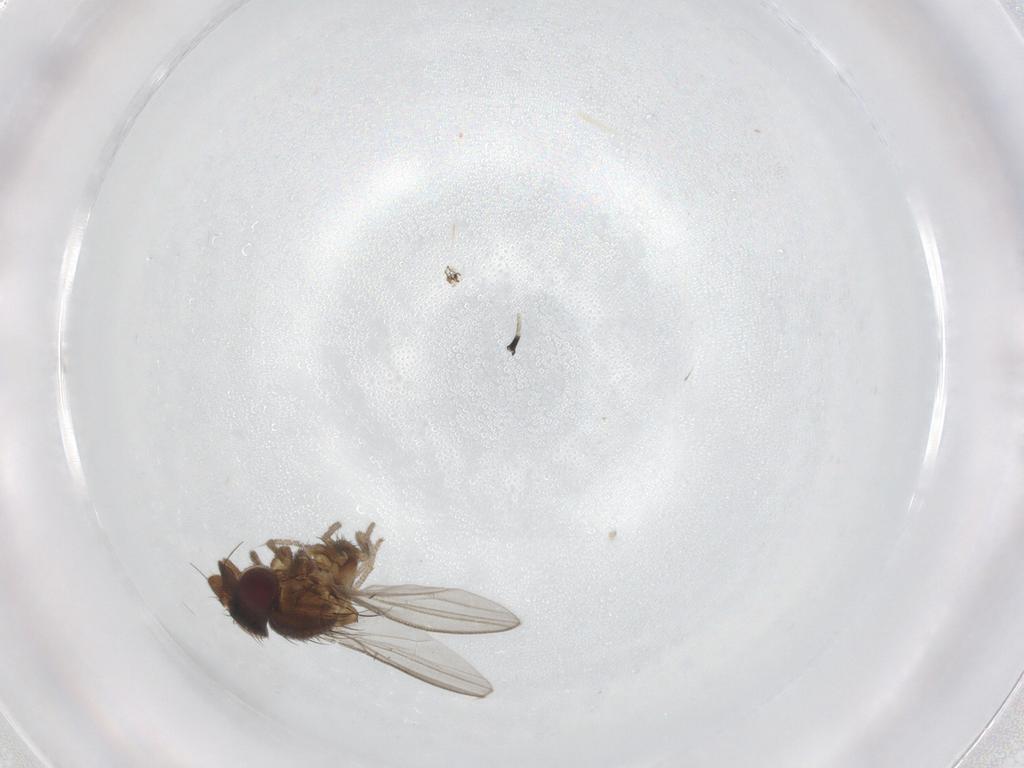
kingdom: Animalia
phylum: Arthropoda
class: Insecta
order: Diptera
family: Milichiidae
